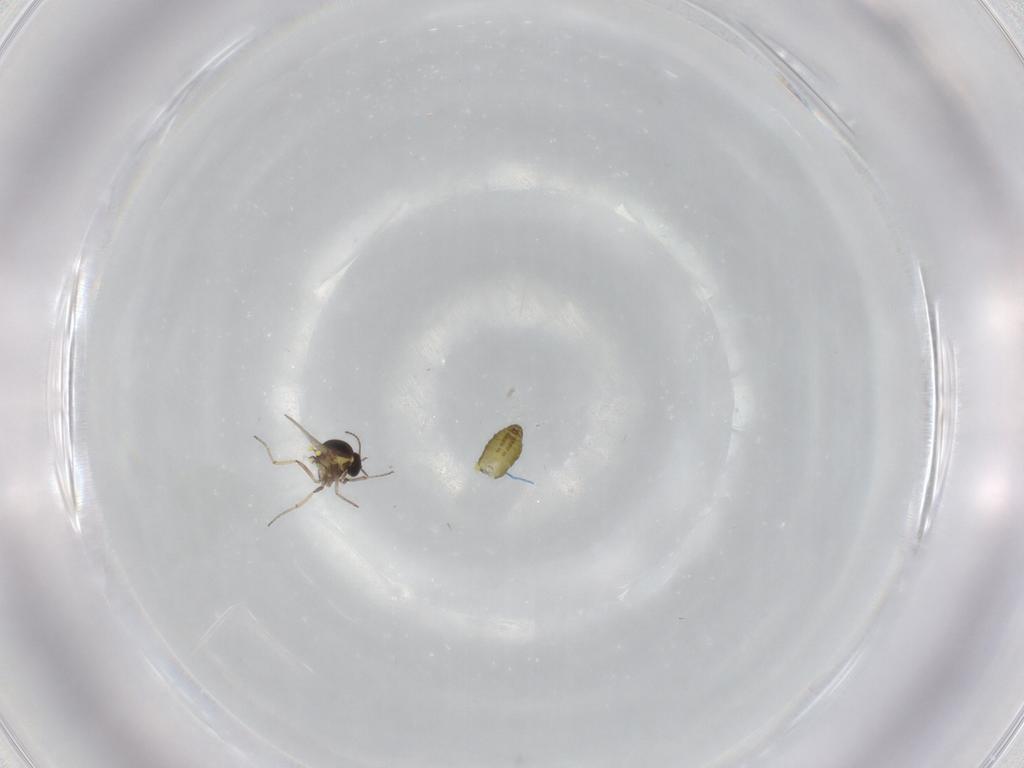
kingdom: Animalia
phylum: Arthropoda
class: Insecta
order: Diptera
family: Ceratopogonidae
